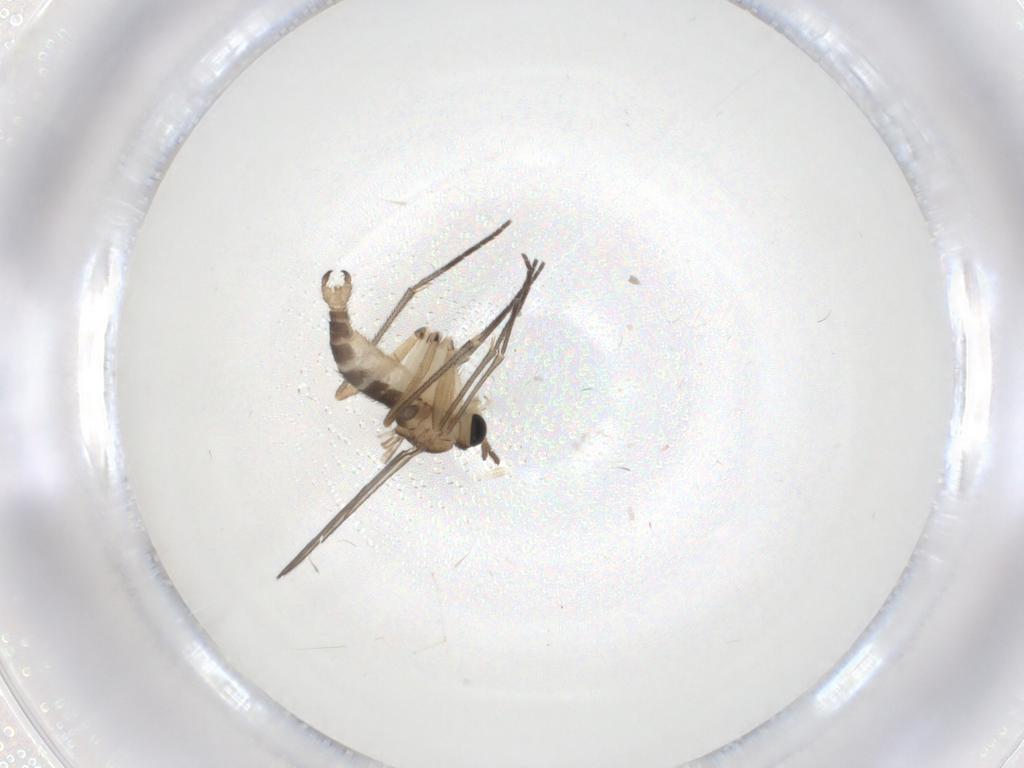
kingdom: Animalia
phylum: Arthropoda
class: Insecta
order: Diptera
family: Sciaridae
